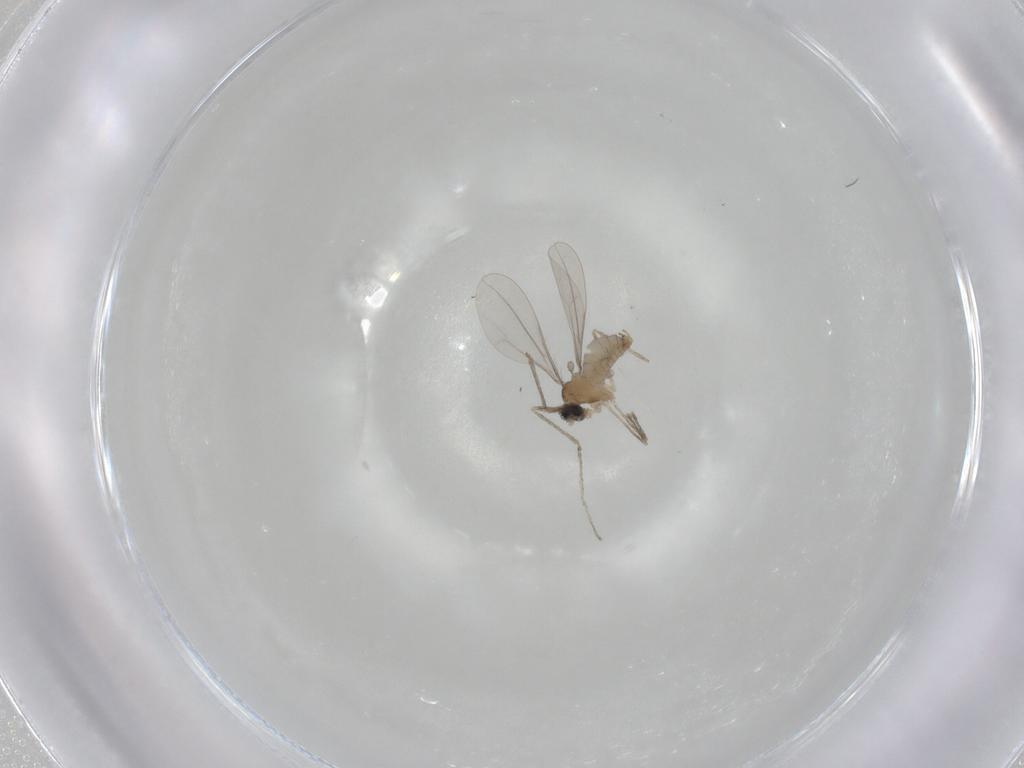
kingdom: Animalia
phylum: Arthropoda
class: Insecta
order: Diptera
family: Cecidomyiidae
